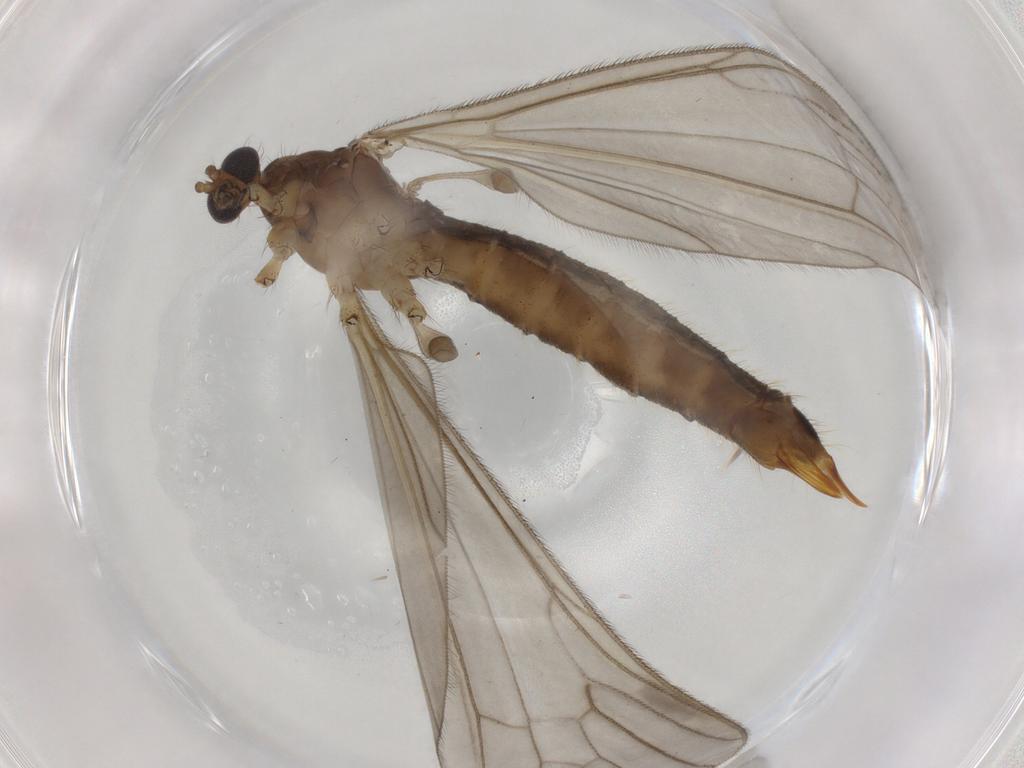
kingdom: Animalia
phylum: Arthropoda
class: Insecta
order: Diptera
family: Limoniidae
